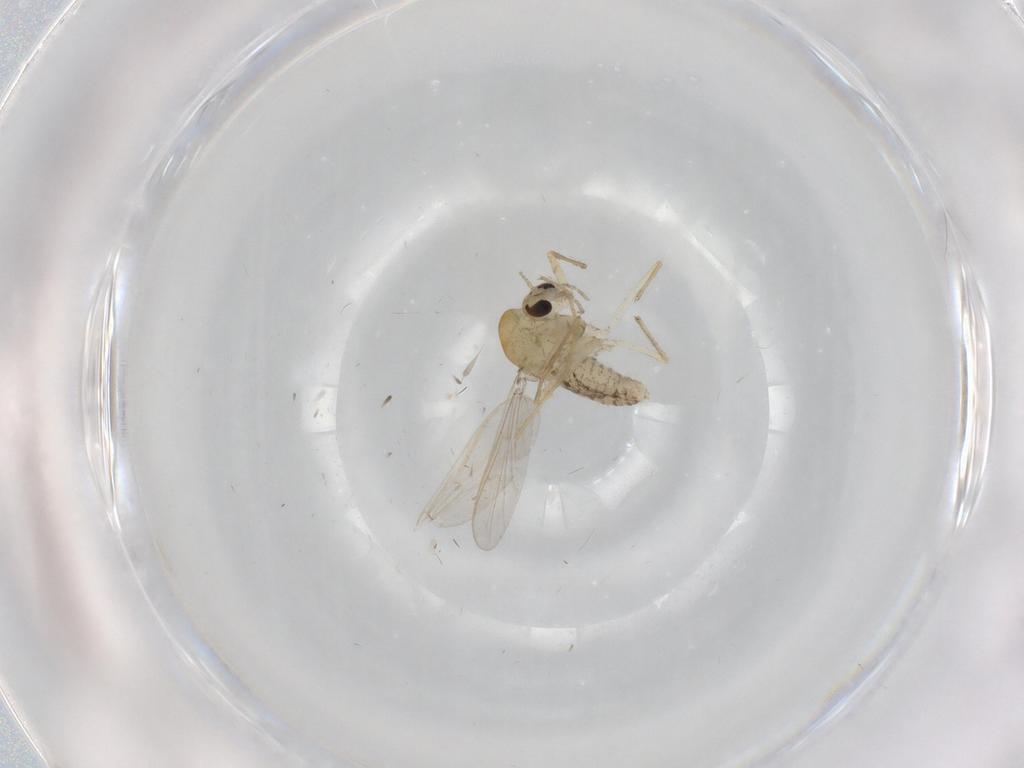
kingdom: Animalia
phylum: Arthropoda
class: Insecta
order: Diptera
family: Chironomidae
